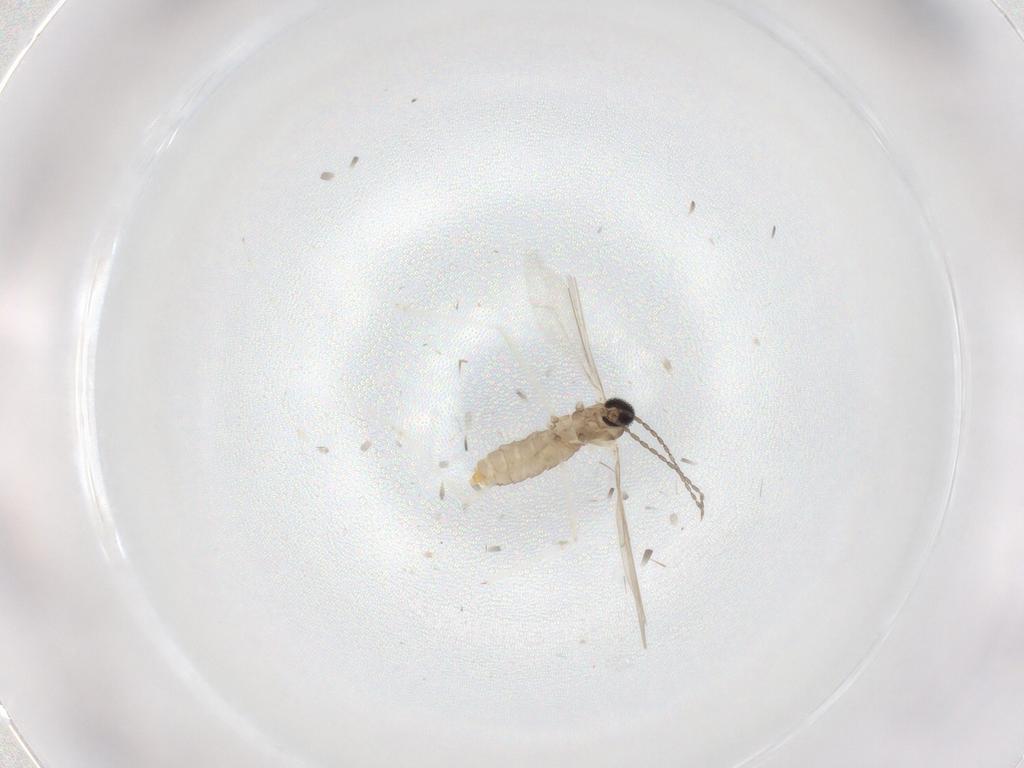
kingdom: Animalia
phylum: Arthropoda
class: Insecta
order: Diptera
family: Cecidomyiidae
